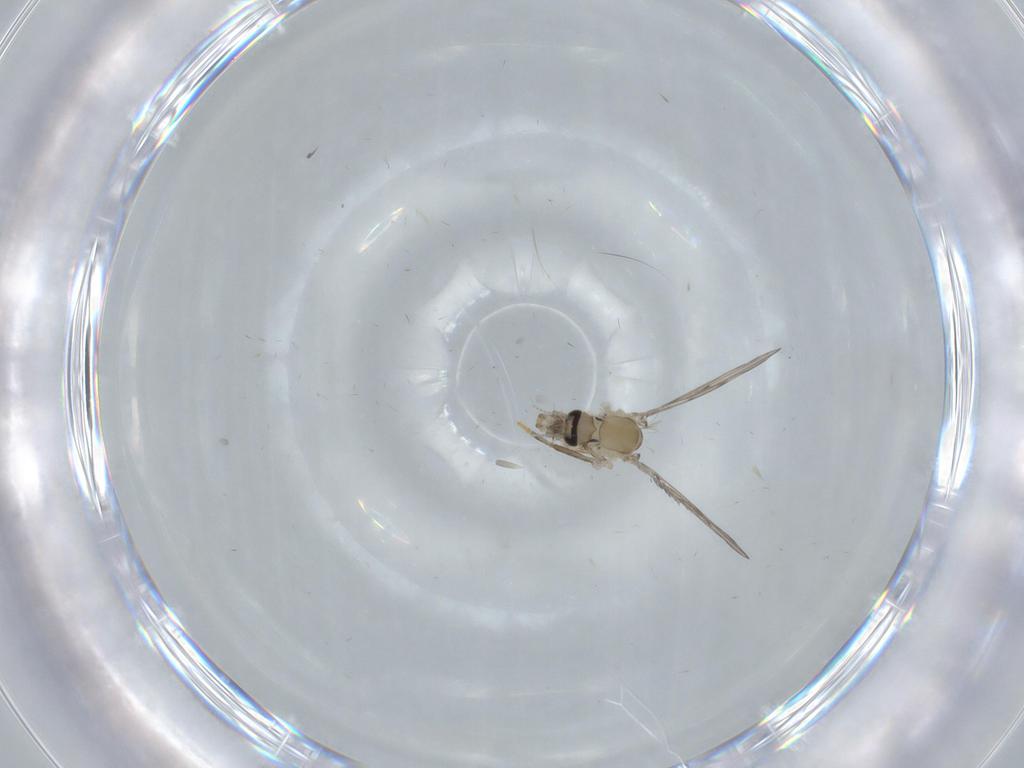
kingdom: Animalia
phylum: Arthropoda
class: Insecta
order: Diptera
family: Psychodidae
